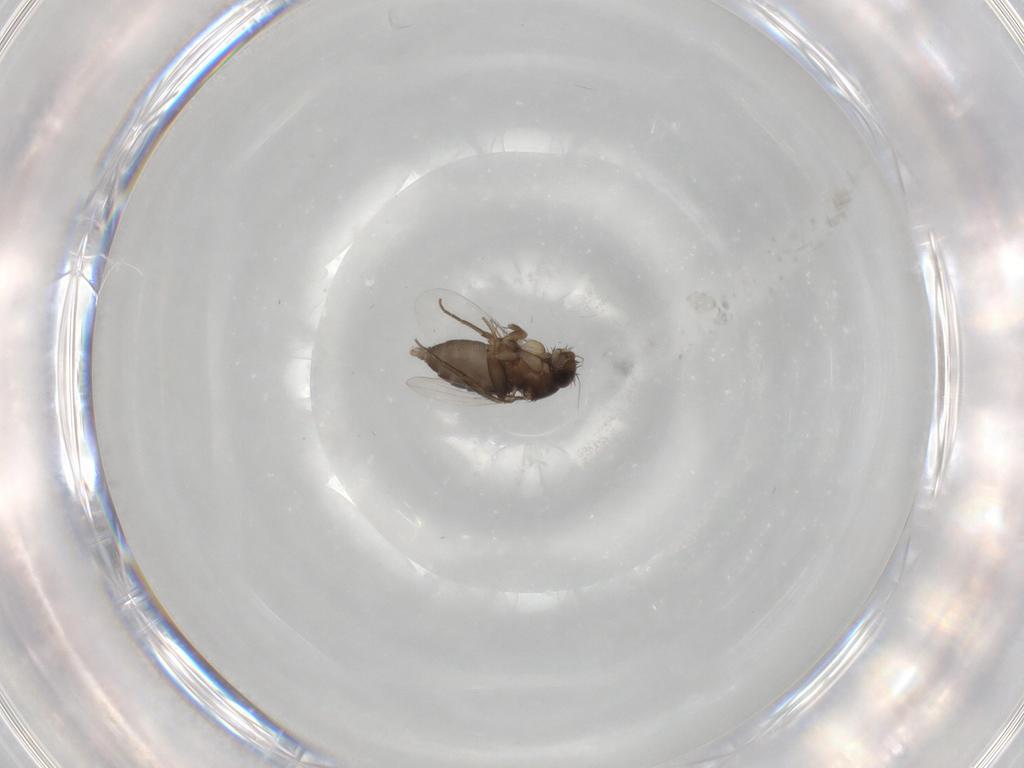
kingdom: Animalia
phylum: Arthropoda
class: Insecta
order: Diptera
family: Phoridae
